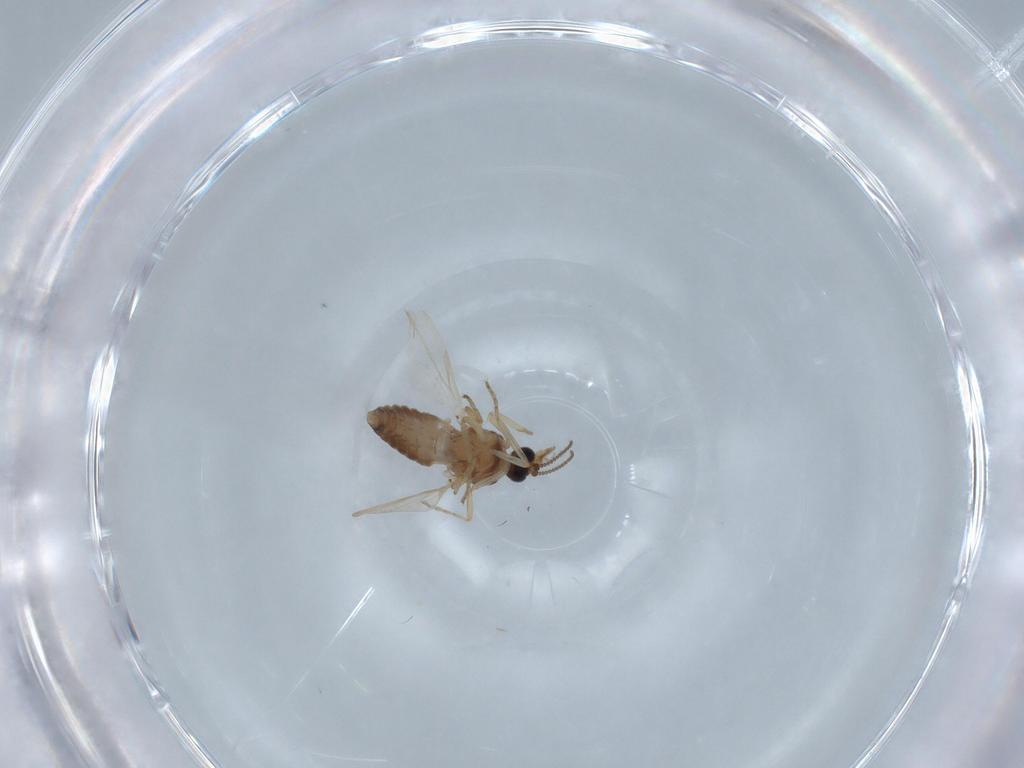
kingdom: Animalia
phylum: Arthropoda
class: Insecta
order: Diptera
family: Ceratopogonidae
